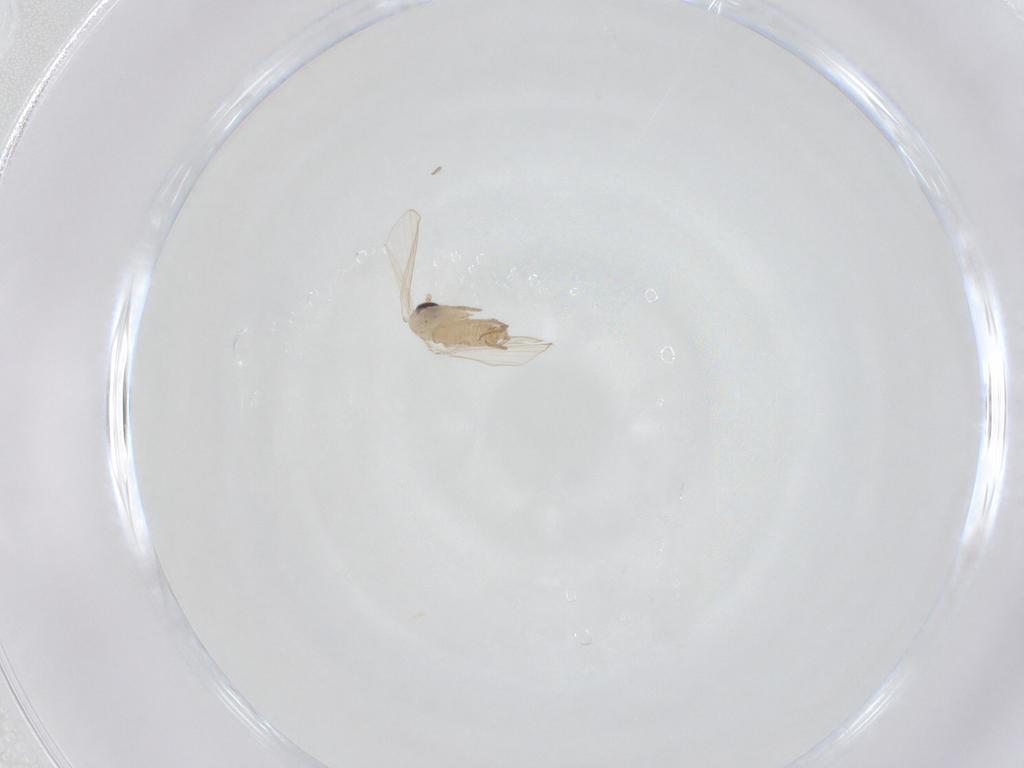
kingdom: Animalia
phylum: Arthropoda
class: Insecta
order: Diptera
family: Psychodidae
